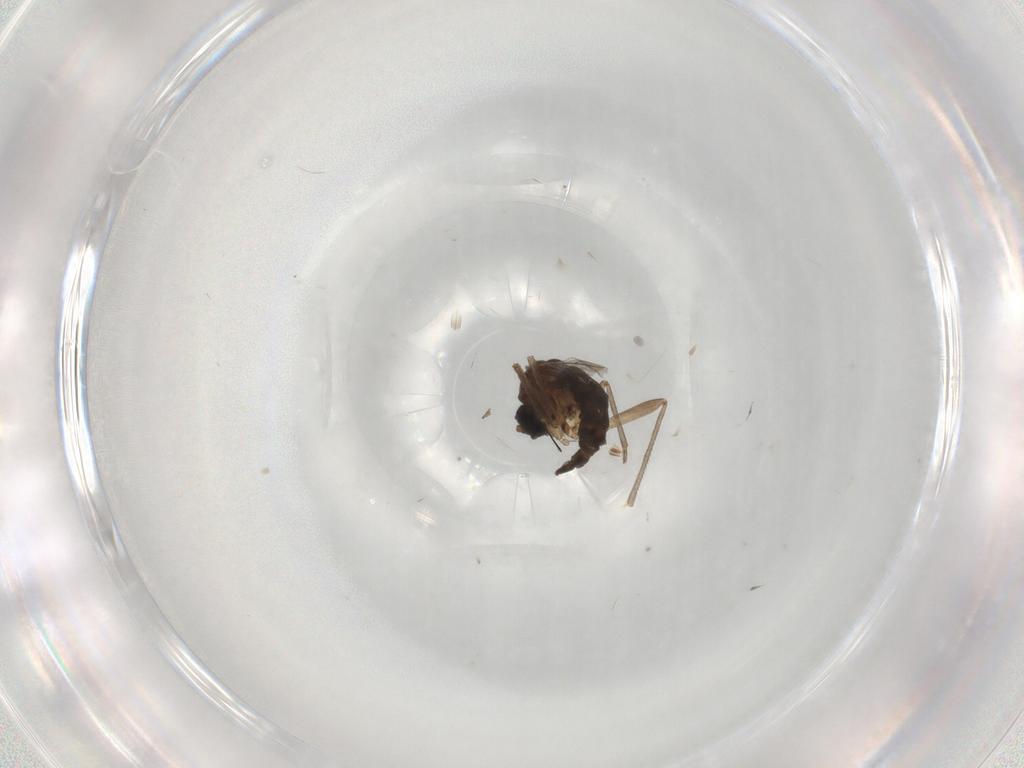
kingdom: Animalia
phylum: Arthropoda
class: Insecta
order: Diptera
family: Sciaridae
